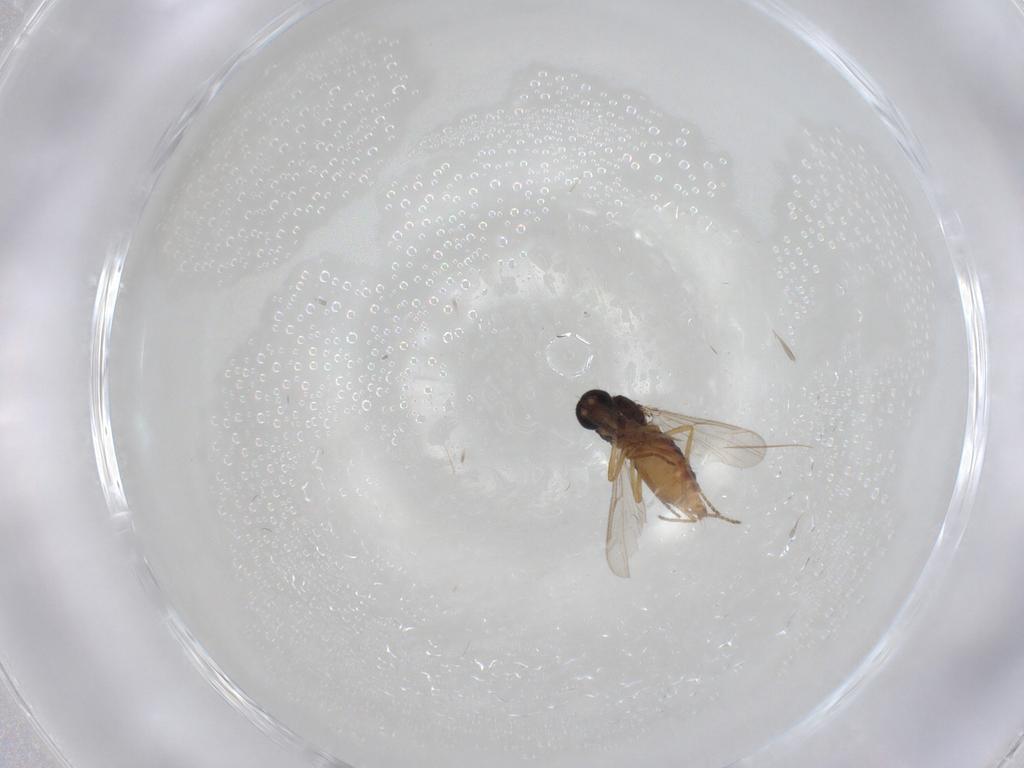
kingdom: Animalia
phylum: Arthropoda
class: Insecta
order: Diptera
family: Ceratopogonidae
